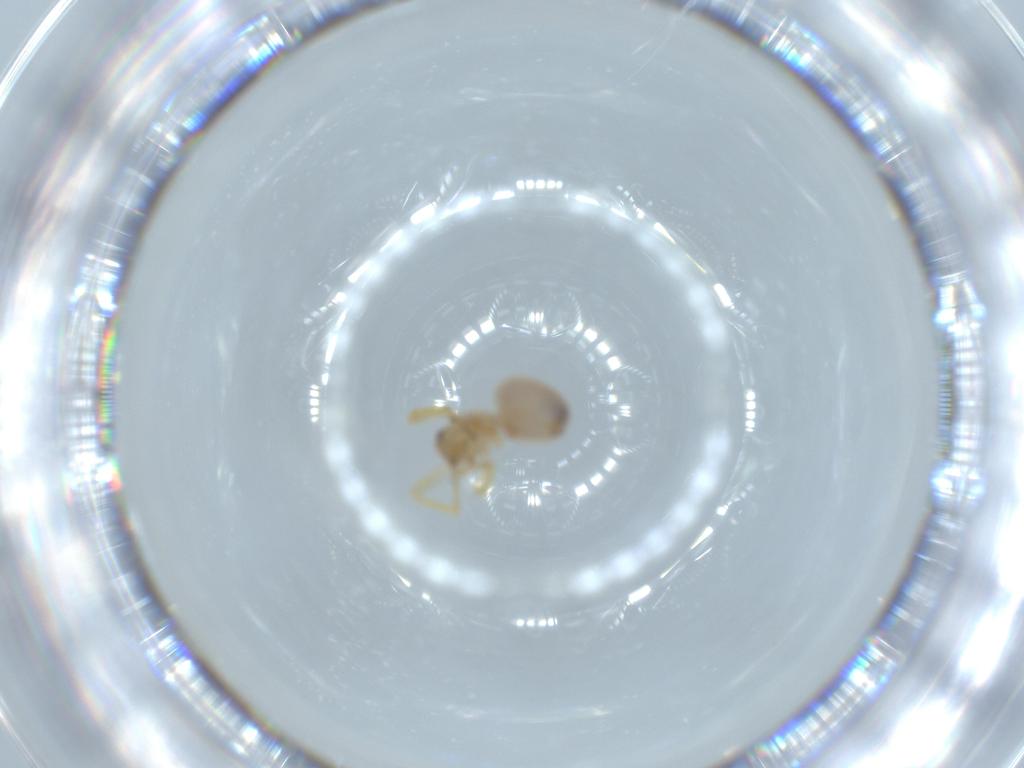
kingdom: Animalia
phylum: Arthropoda
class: Arachnida
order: Araneae
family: Oonopidae
